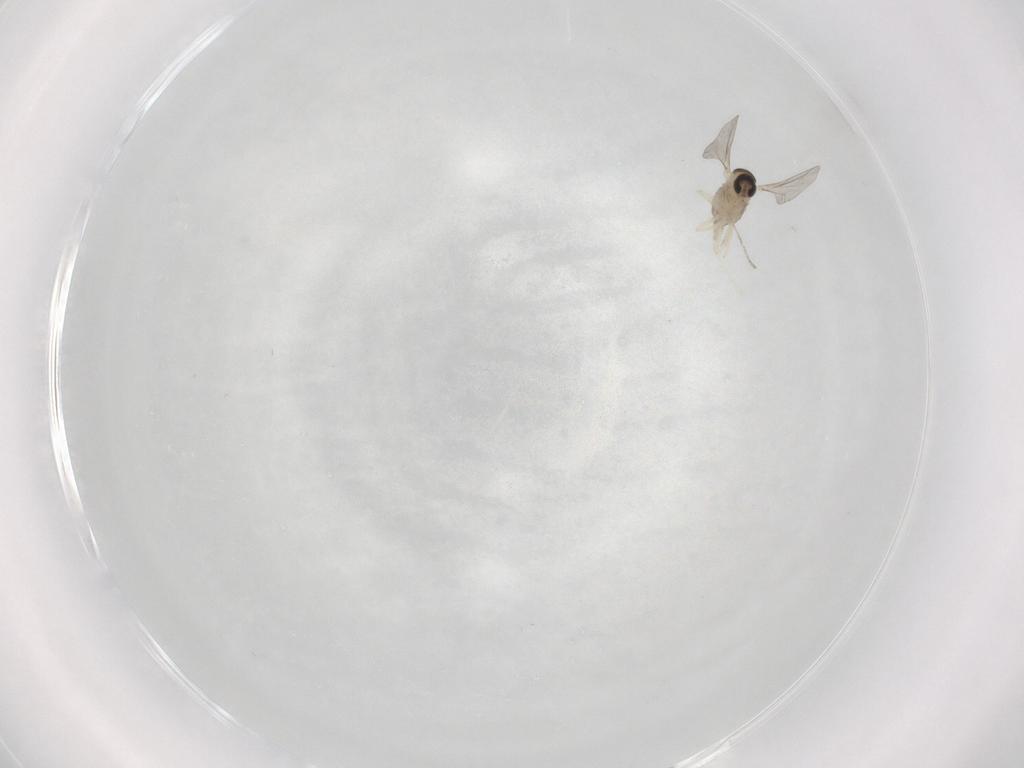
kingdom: Animalia
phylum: Arthropoda
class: Insecta
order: Diptera
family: Cecidomyiidae
